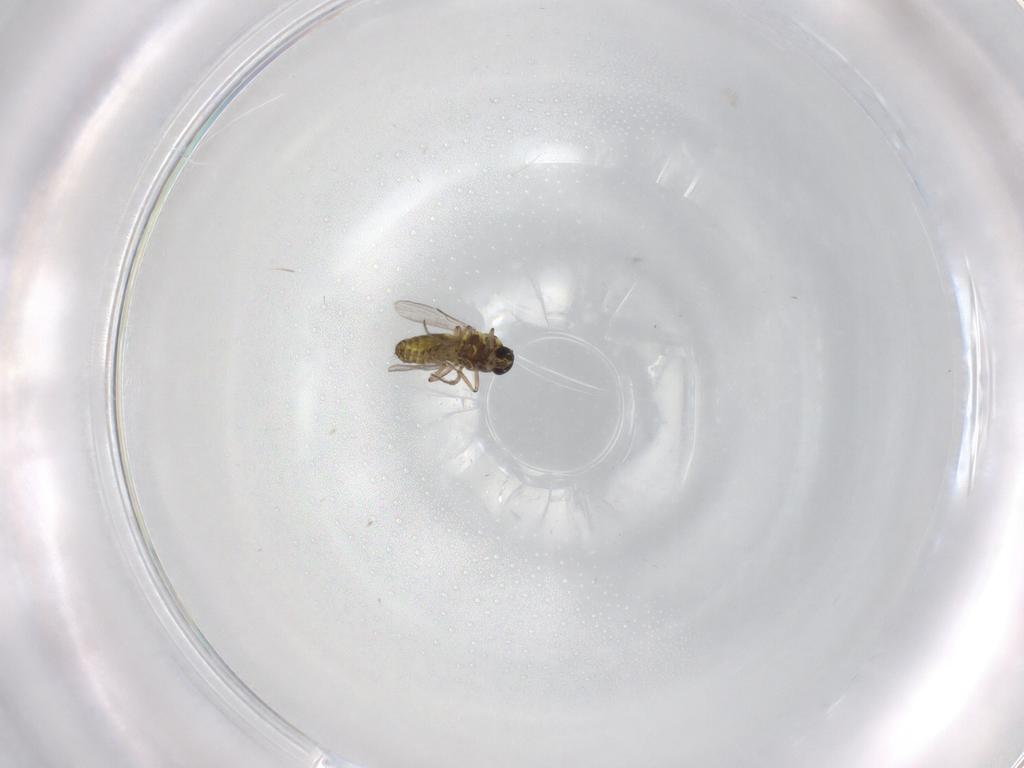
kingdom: Animalia
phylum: Arthropoda
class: Insecta
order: Diptera
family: Ceratopogonidae
